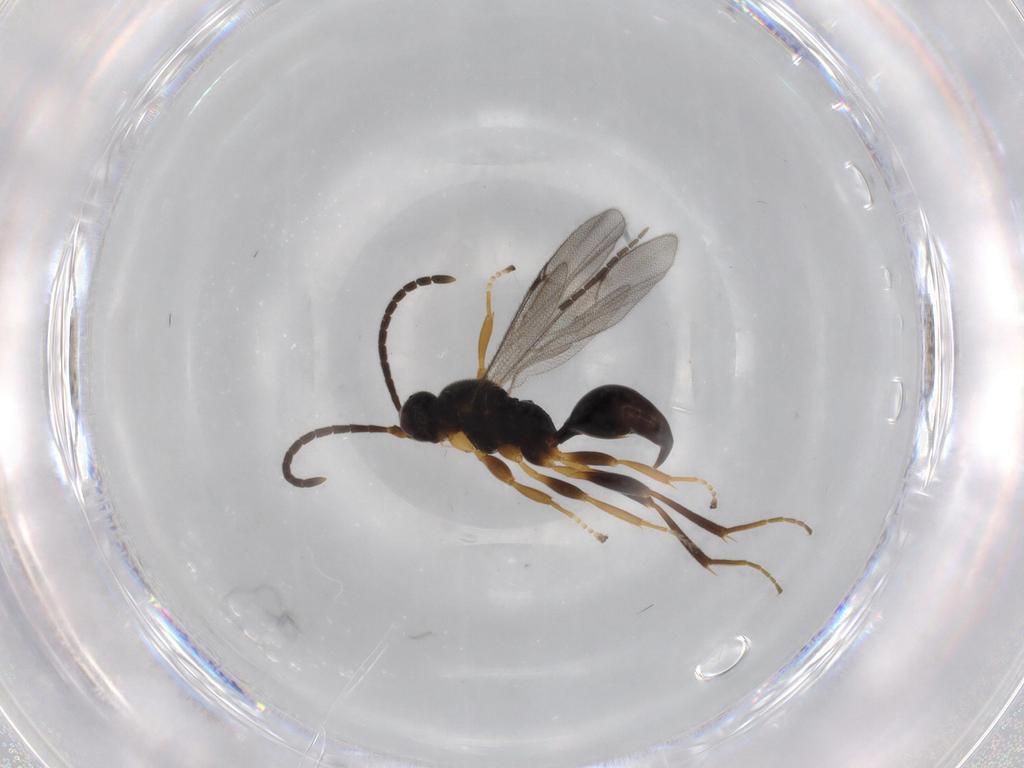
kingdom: Animalia
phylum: Arthropoda
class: Insecta
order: Hymenoptera
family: Proctotrupidae
